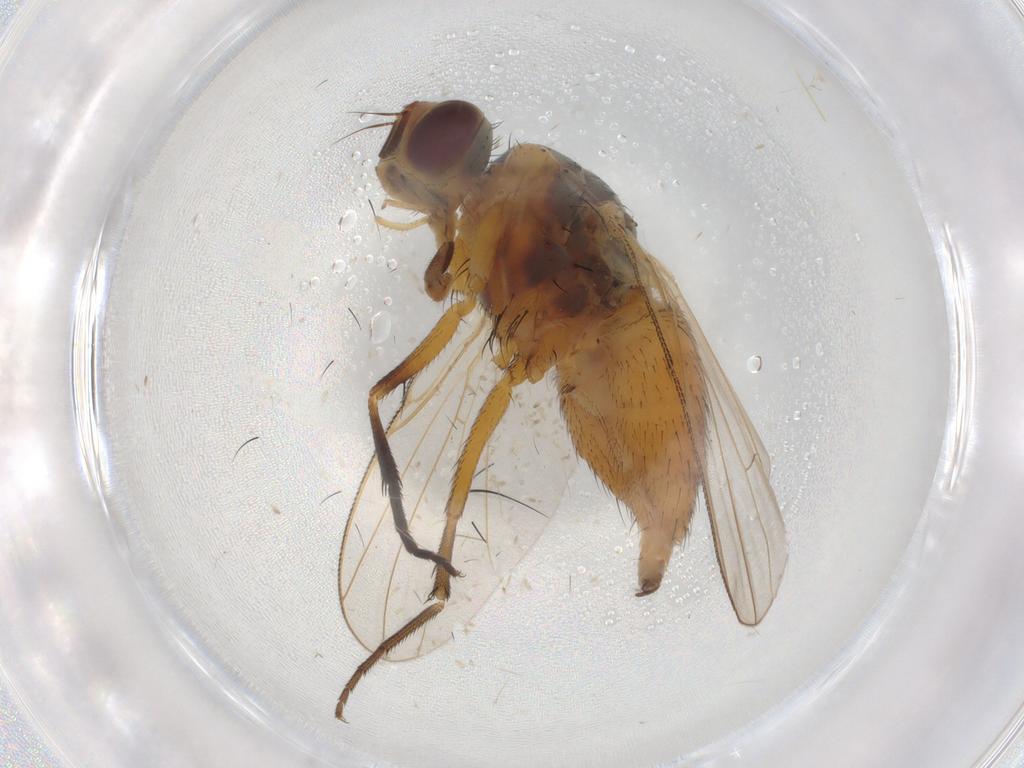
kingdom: Animalia
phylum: Arthropoda
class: Insecta
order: Diptera
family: Muscidae
